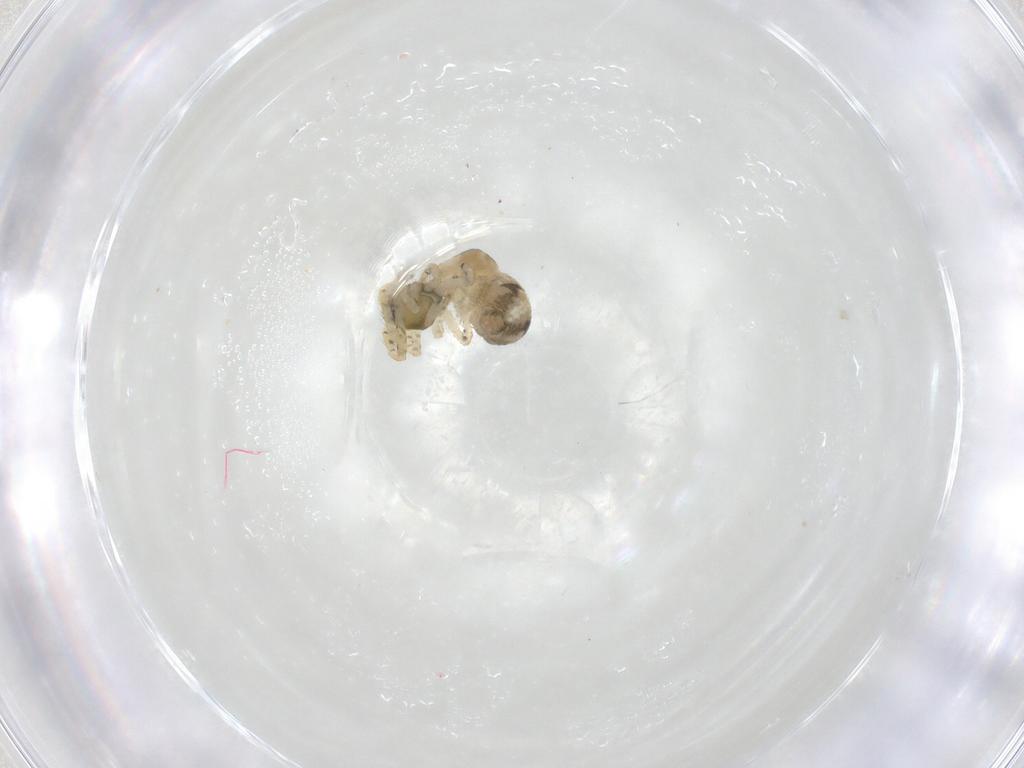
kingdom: Animalia
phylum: Arthropoda
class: Arachnida
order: Araneae
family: Theridiidae
